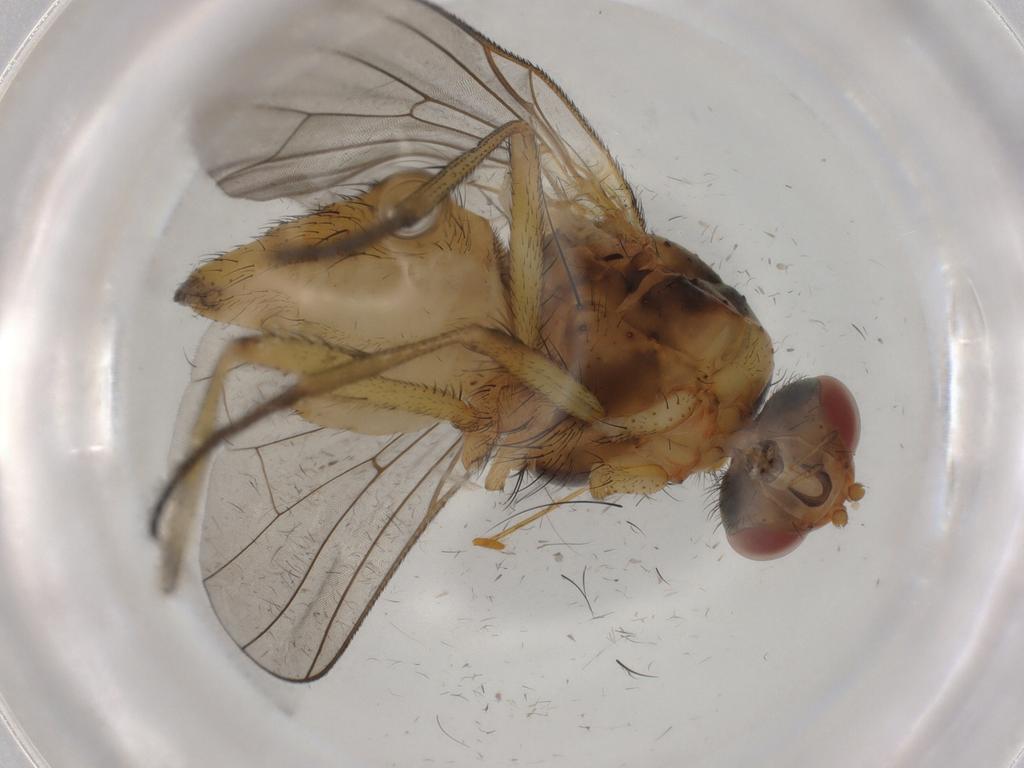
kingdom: Animalia
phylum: Arthropoda
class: Insecta
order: Diptera
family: Anthomyiidae
